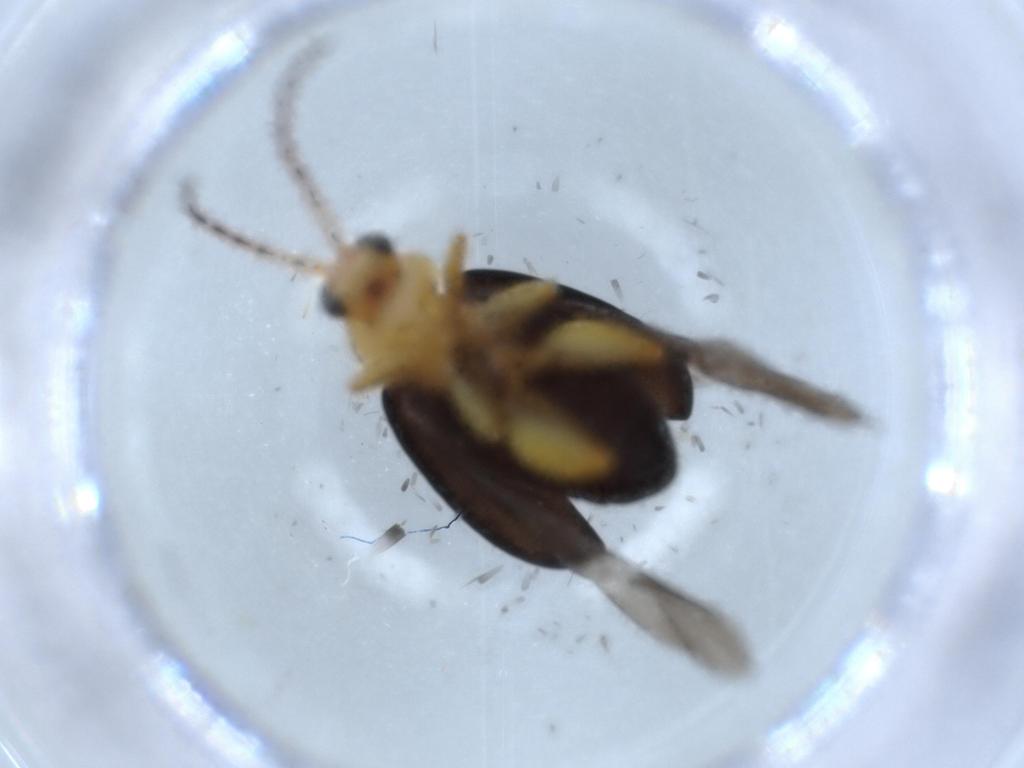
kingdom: Animalia
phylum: Arthropoda
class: Insecta
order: Coleoptera
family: Chrysomelidae
